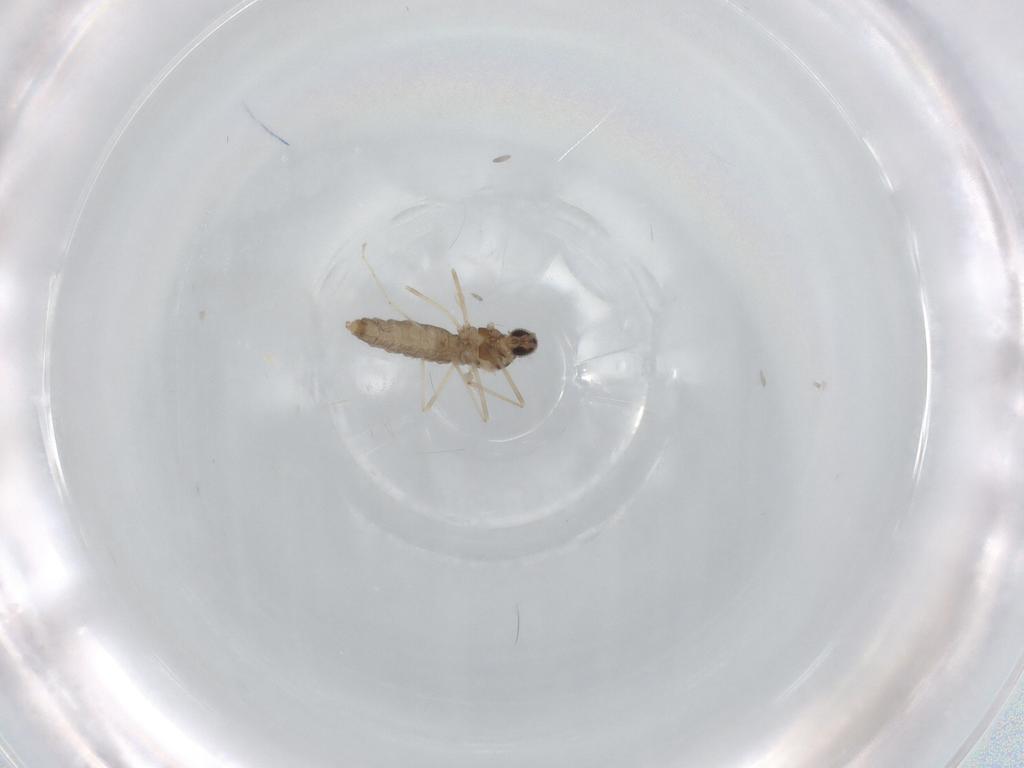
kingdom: Animalia
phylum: Arthropoda
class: Insecta
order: Diptera
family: Cecidomyiidae
